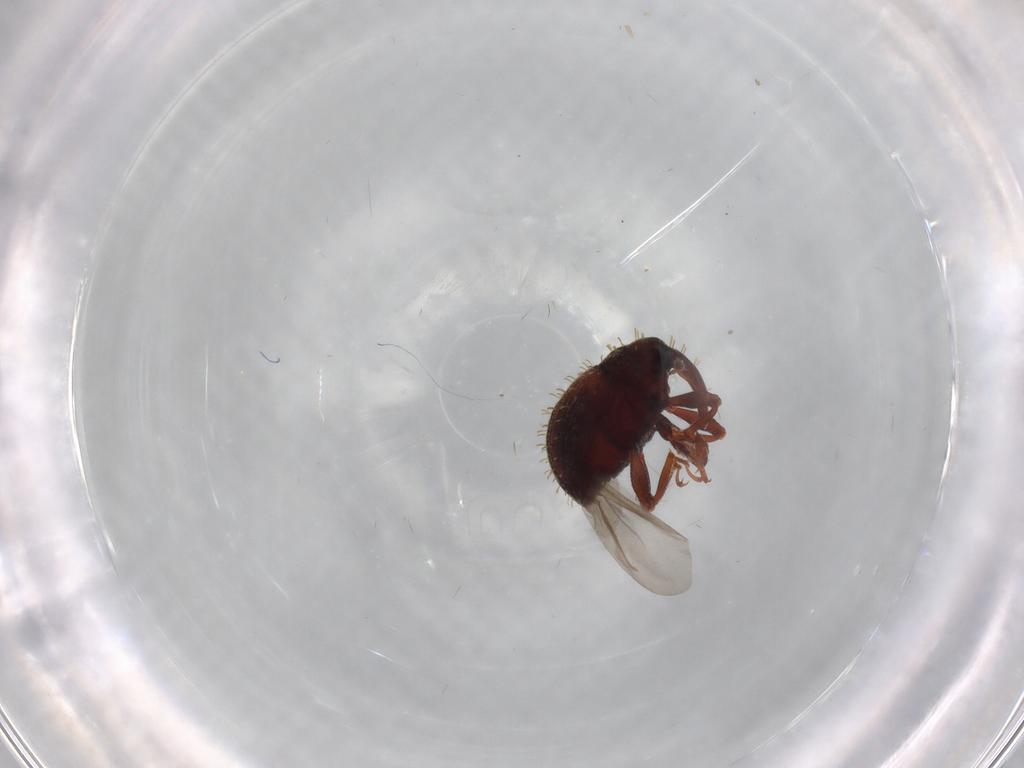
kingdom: Animalia
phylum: Arthropoda
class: Insecta
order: Coleoptera
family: Curculionidae
